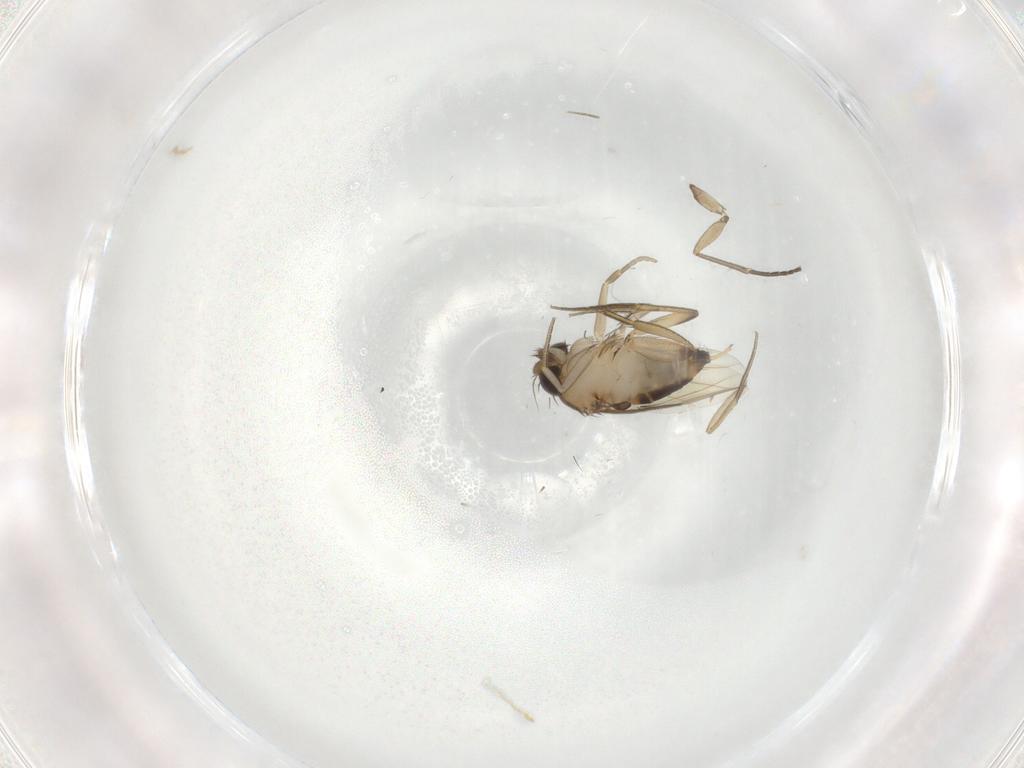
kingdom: Animalia
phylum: Arthropoda
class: Insecta
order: Diptera
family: Phoridae
